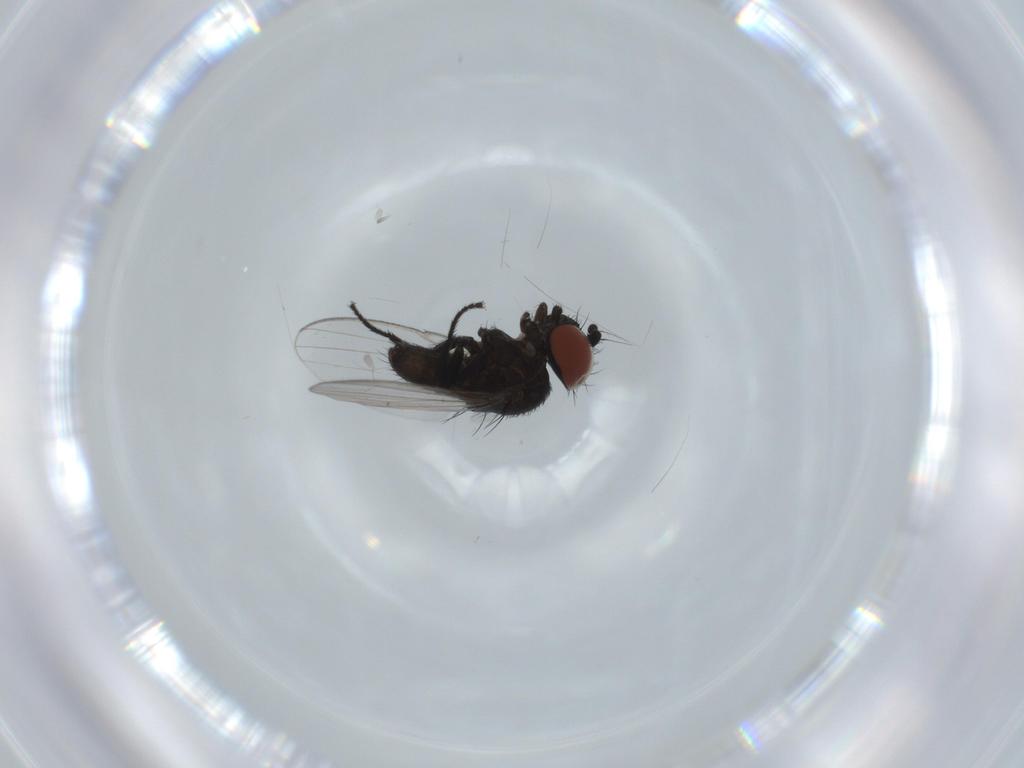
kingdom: Animalia
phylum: Arthropoda
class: Insecta
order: Diptera
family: Milichiidae
